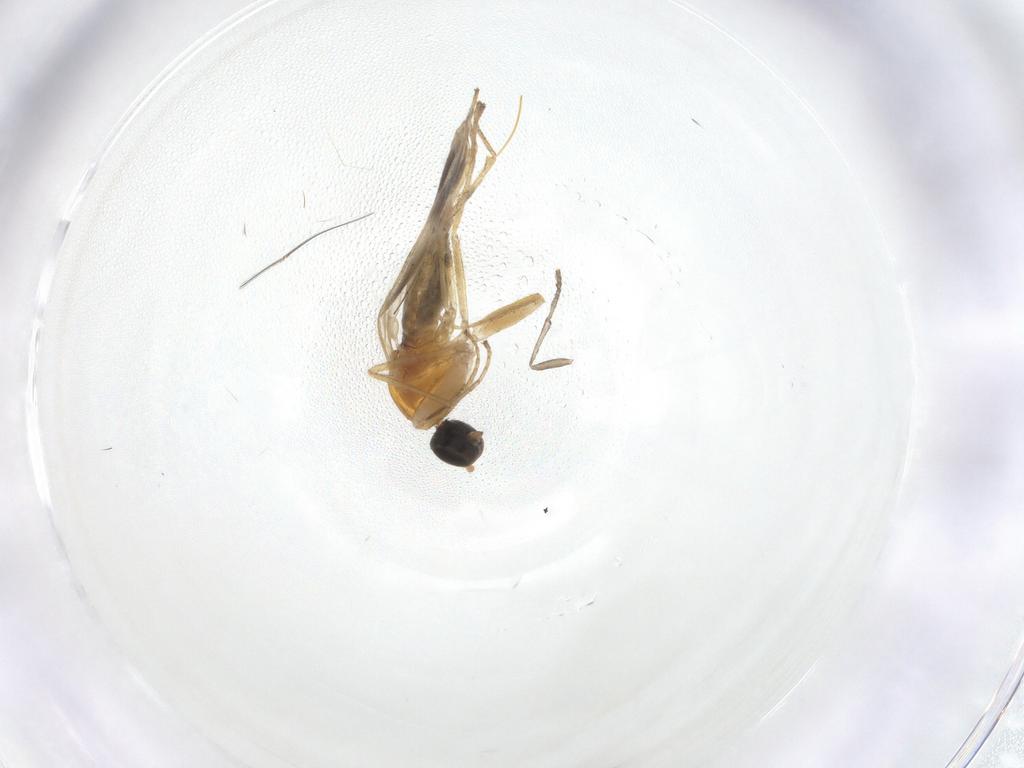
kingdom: Animalia
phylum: Arthropoda
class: Insecta
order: Diptera
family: Psychodidae
